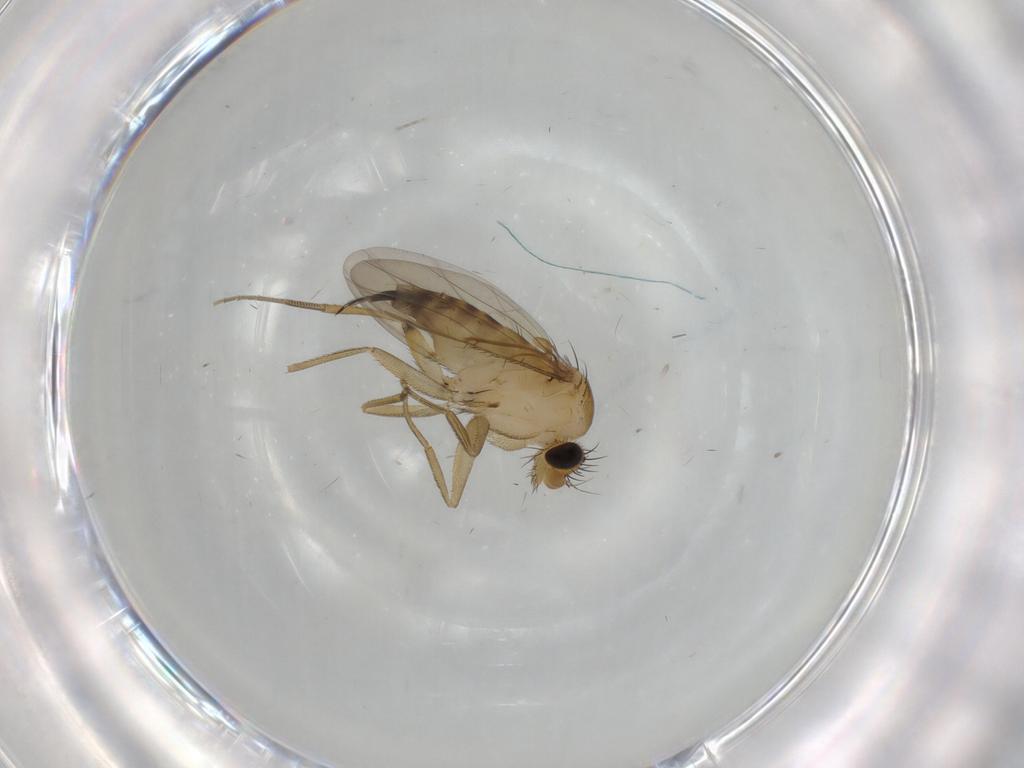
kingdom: Animalia
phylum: Arthropoda
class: Insecta
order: Diptera
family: Phoridae
